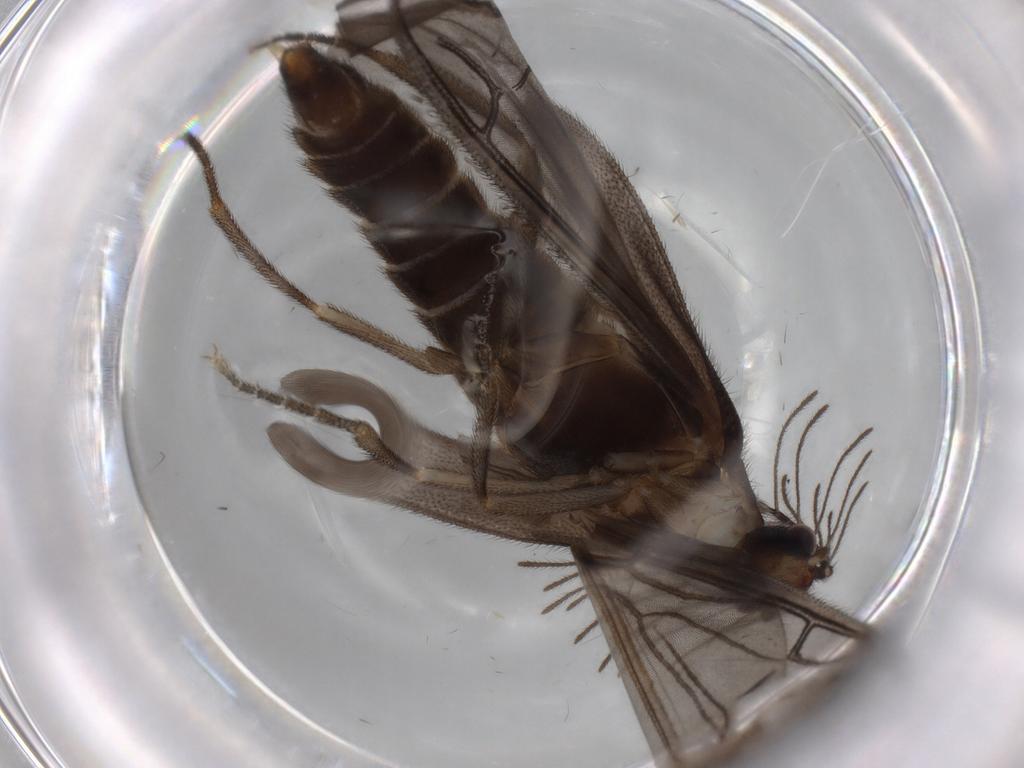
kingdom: Animalia
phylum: Arthropoda
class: Insecta
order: Coleoptera
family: Phengodidae
